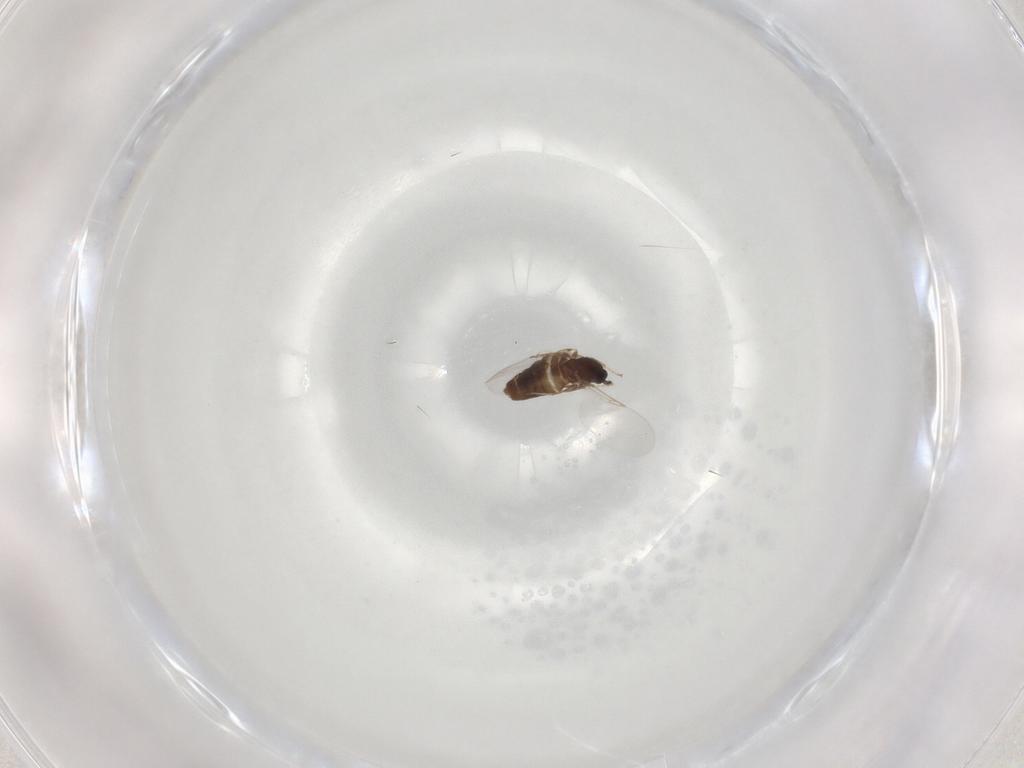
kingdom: Animalia
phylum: Arthropoda
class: Insecta
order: Diptera
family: Scatopsidae
